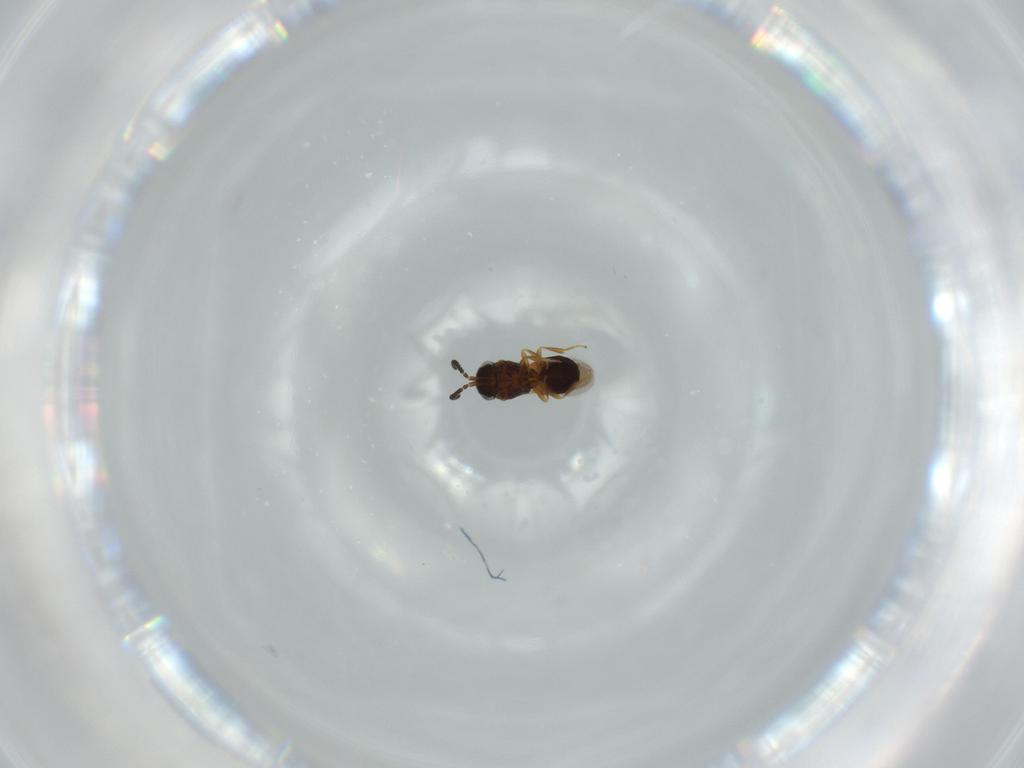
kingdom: Animalia
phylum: Arthropoda
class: Insecta
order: Hymenoptera
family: Scelionidae
